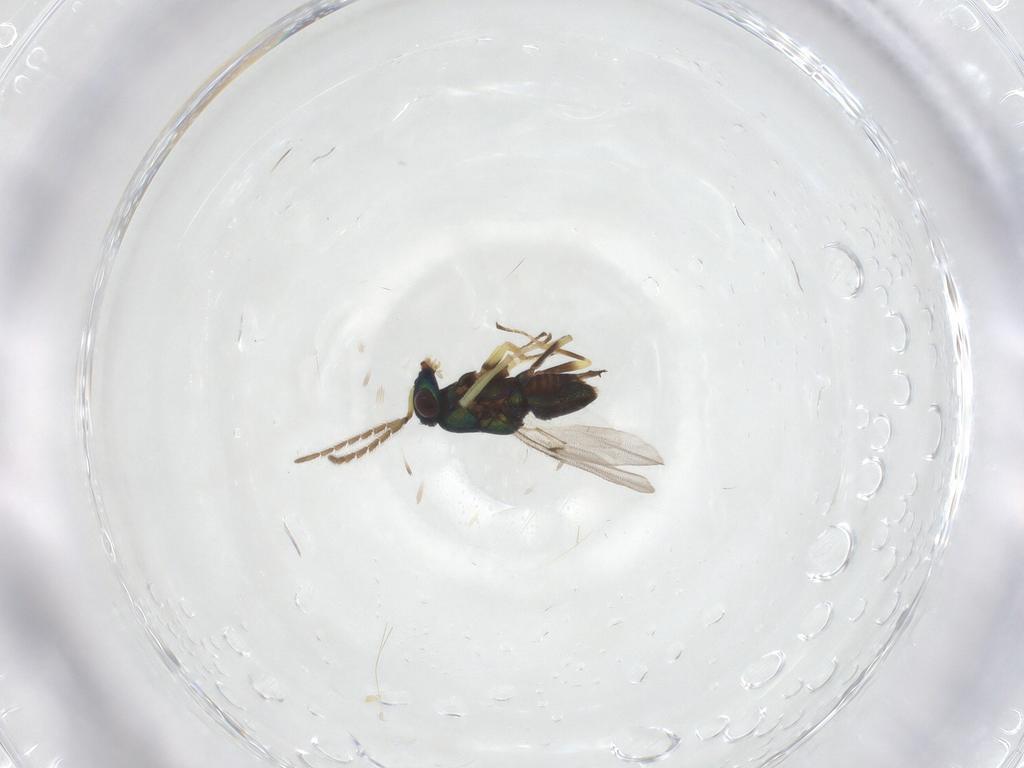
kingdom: Animalia
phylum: Arthropoda
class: Insecta
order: Hymenoptera
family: Encyrtidae
